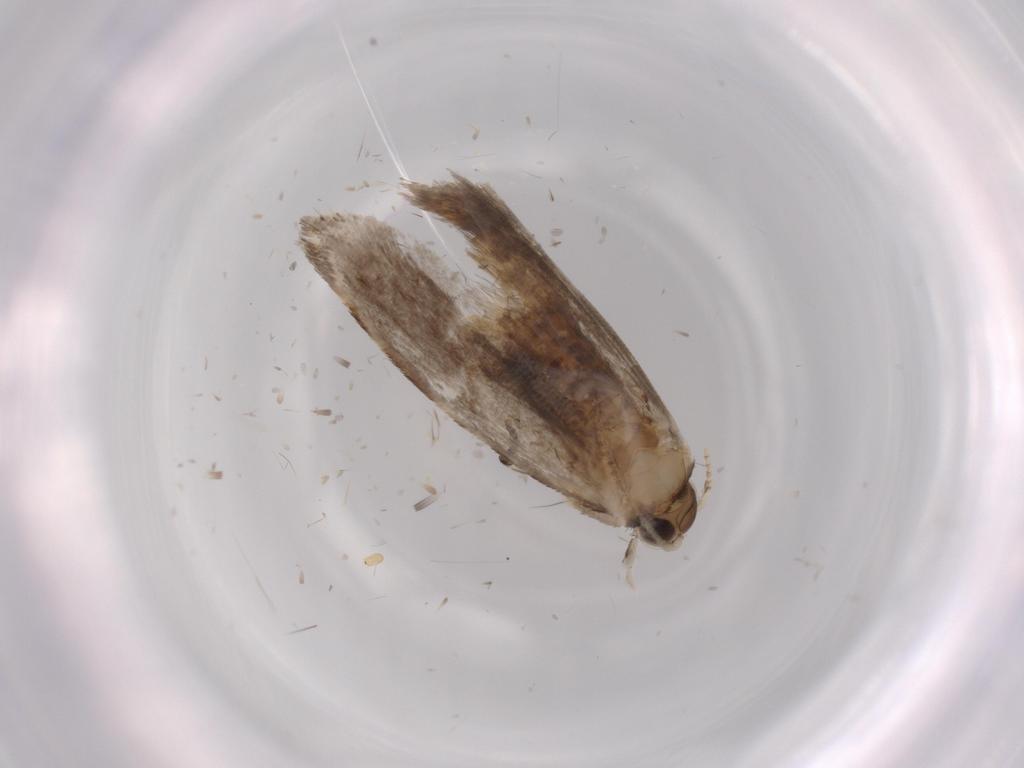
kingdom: Animalia
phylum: Arthropoda
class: Insecta
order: Lepidoptera
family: Tineidae
